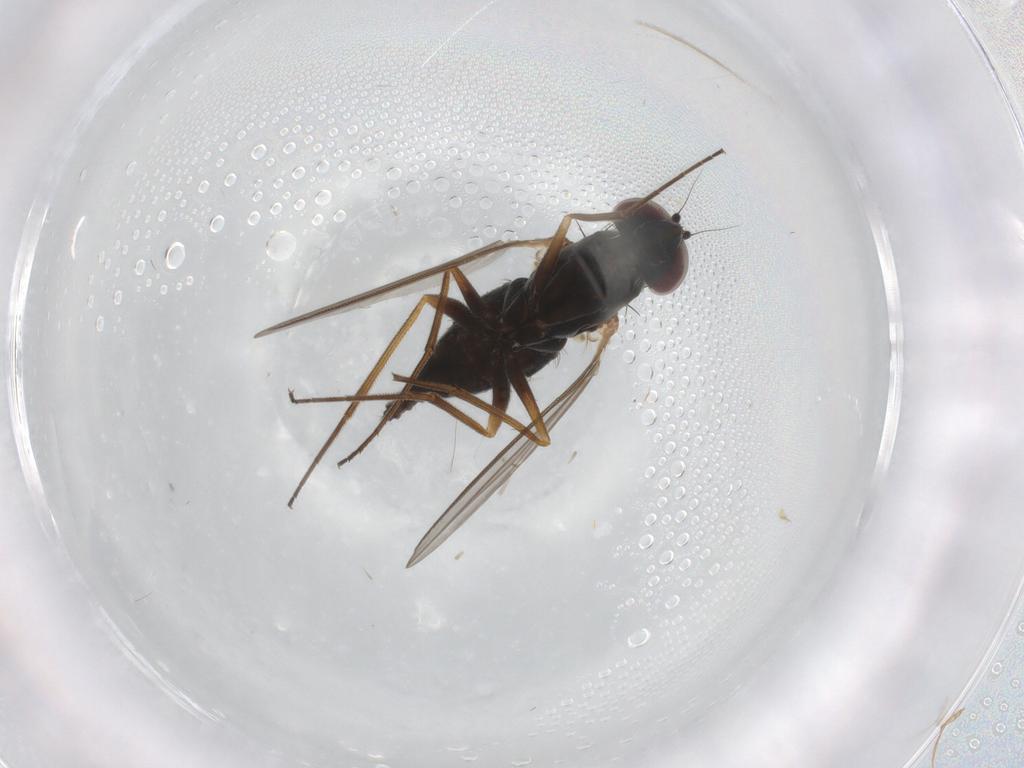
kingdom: Animalia
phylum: Arthropoda
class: Insecta
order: Diptera
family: Dolichopodidae
